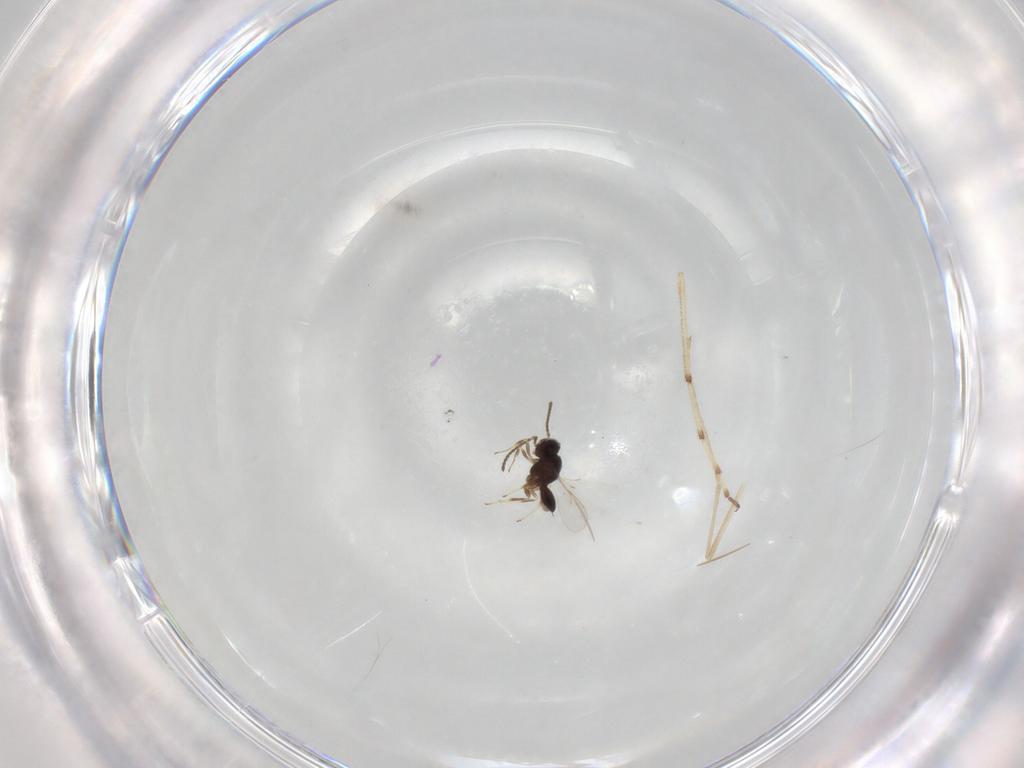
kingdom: Animalia
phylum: Arthropoda
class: Insecta
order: Hymenoptera
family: Scelionidae
